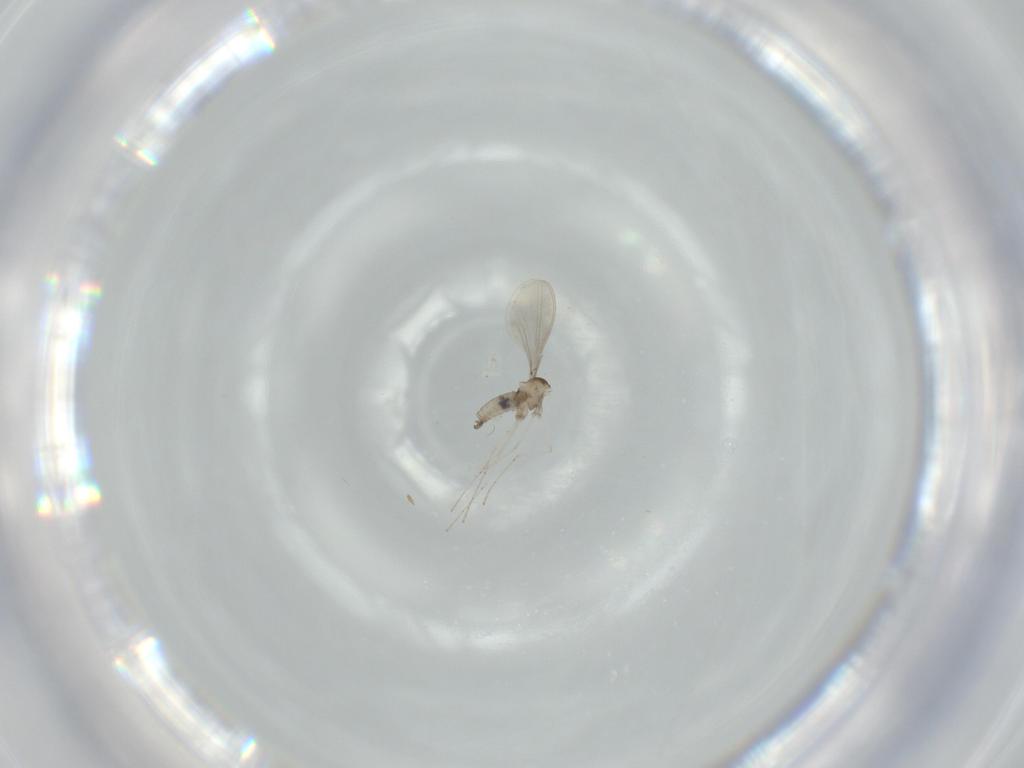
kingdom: Animalia
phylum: Arthropoda
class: Insecta
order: Diptera
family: Cecidomyiidae
